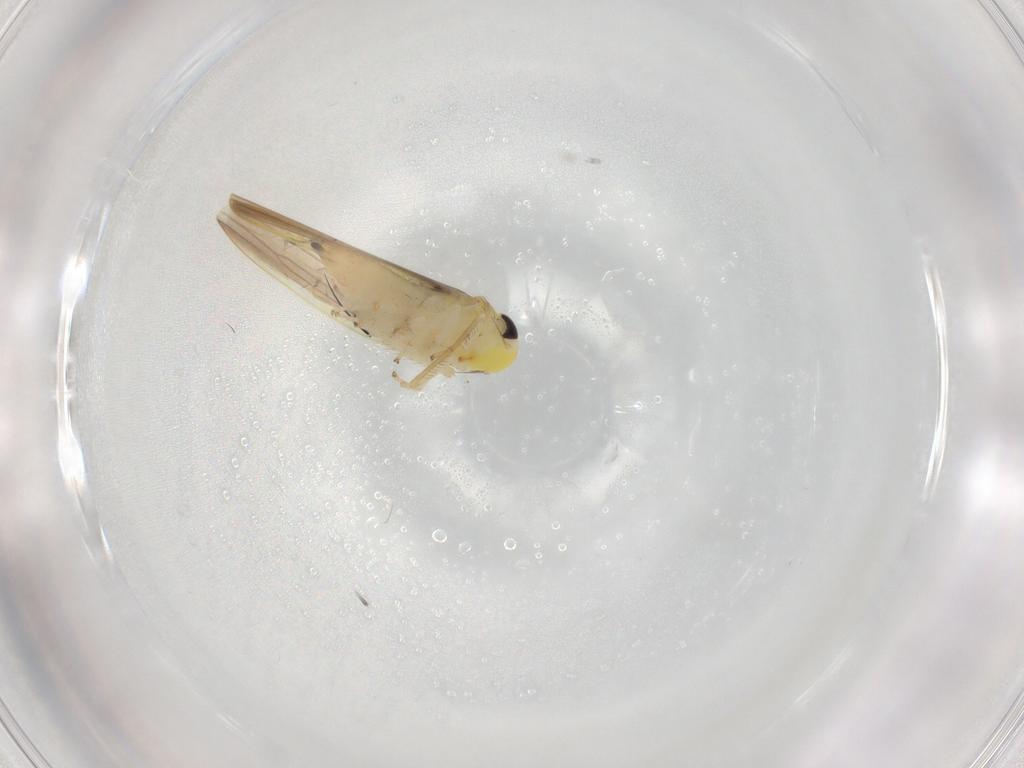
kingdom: Animalia
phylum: Arthropoda
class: Insecta
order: Hemiptera
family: Cicadellidae
